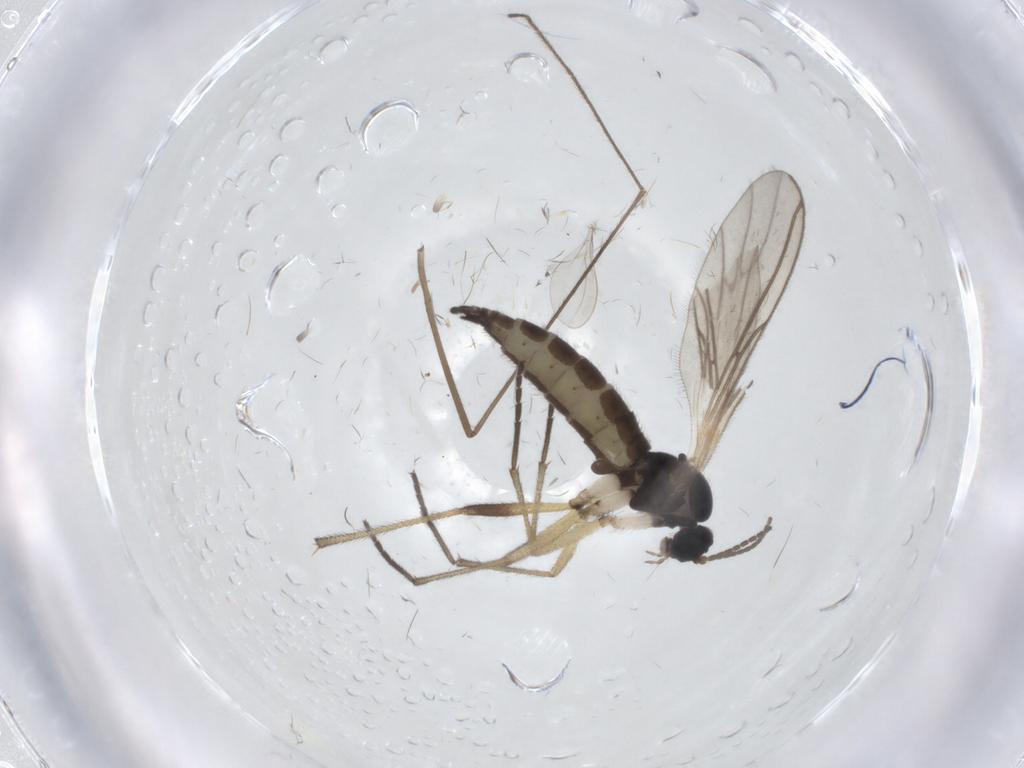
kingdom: Animalia
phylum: Arthropoda
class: Insecta
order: Diptera
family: Sciaridae
